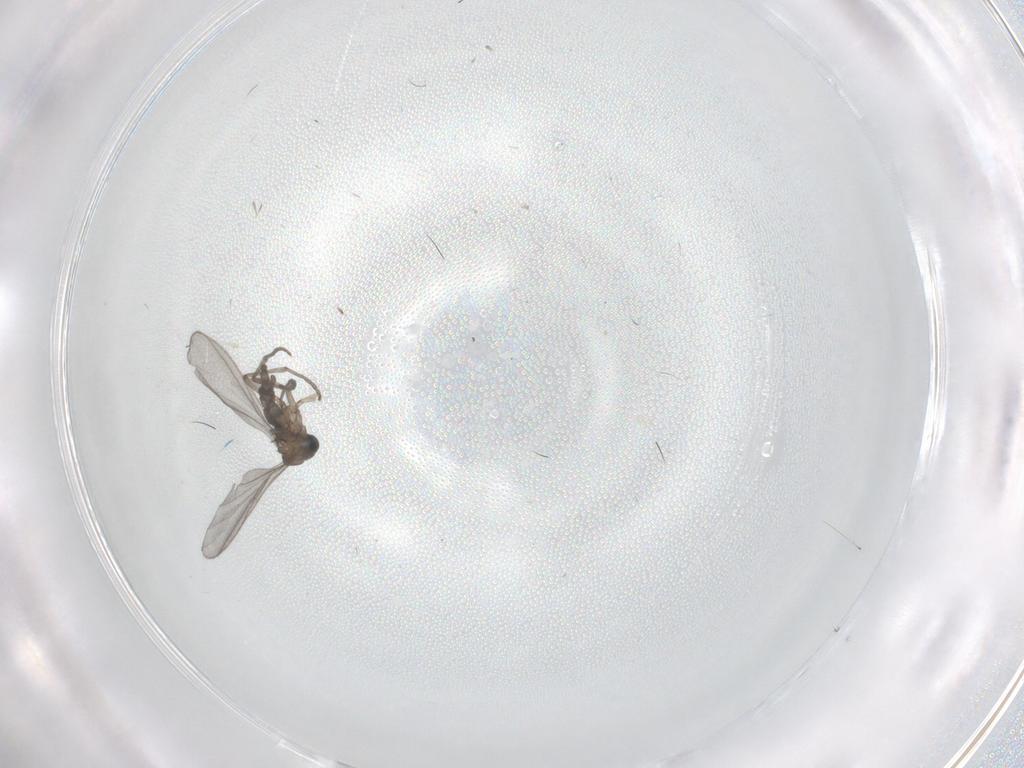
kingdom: Animalia
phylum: Arthropoda
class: Insecta
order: Diptera
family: Sciaridae
